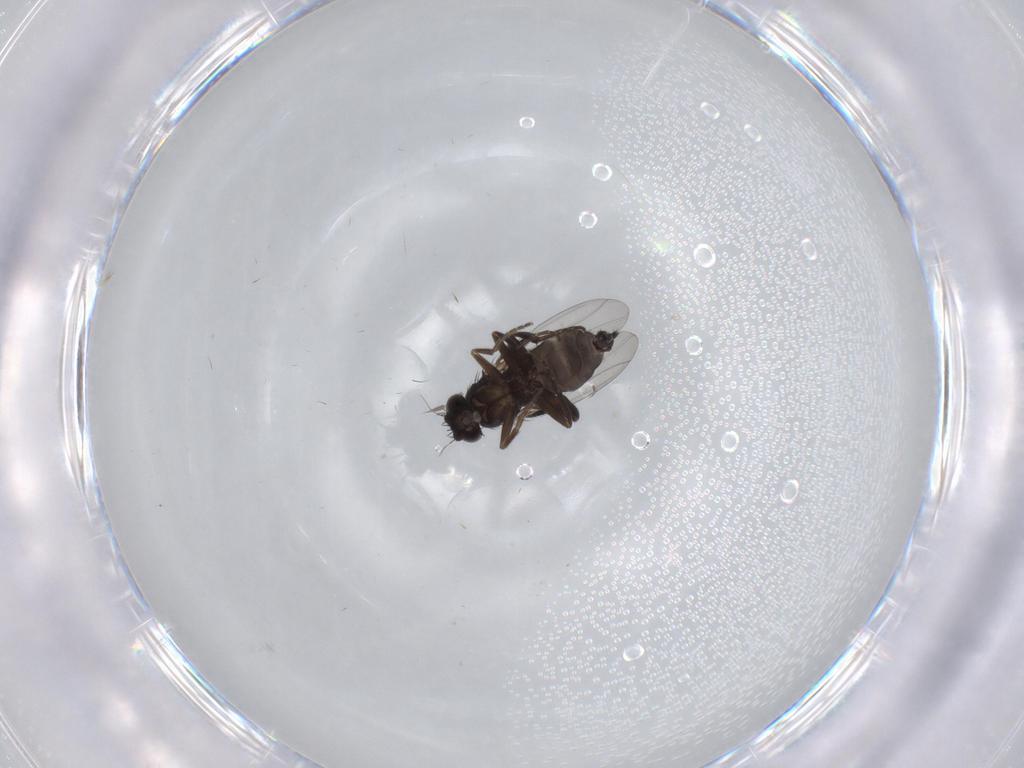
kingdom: Animalia
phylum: Arthropoda
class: Insecta
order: Diptera
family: Phoridae
